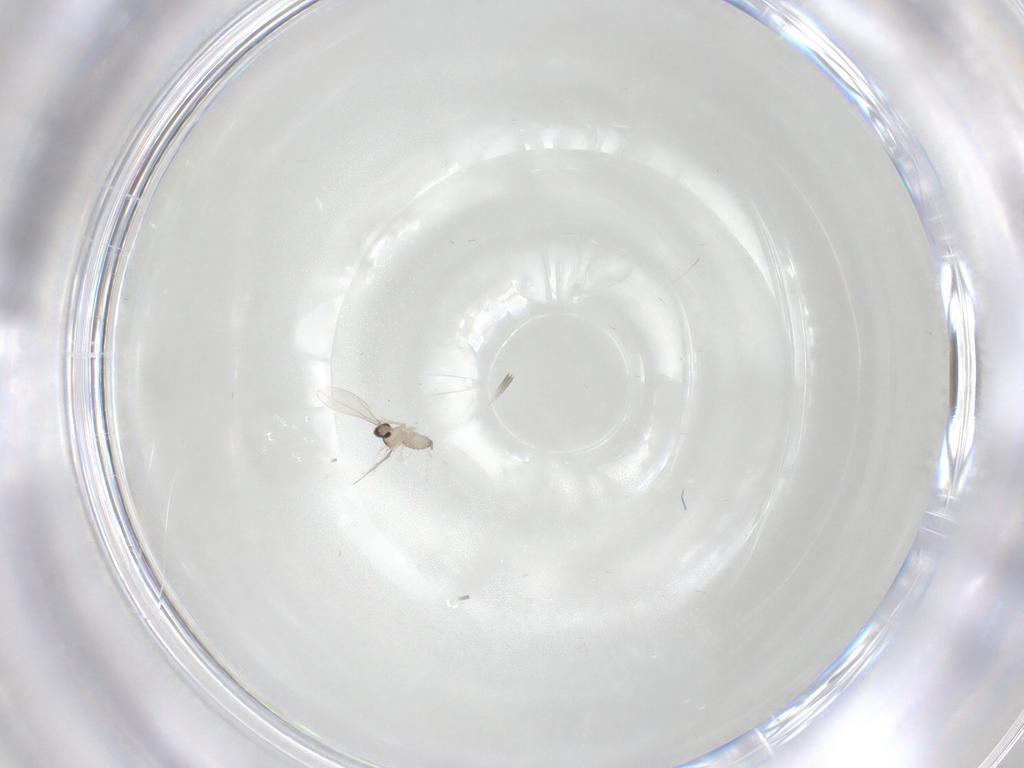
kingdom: Animalia
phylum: Arthropoda
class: Insecta
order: Diptera
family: Cecidomyiidae
